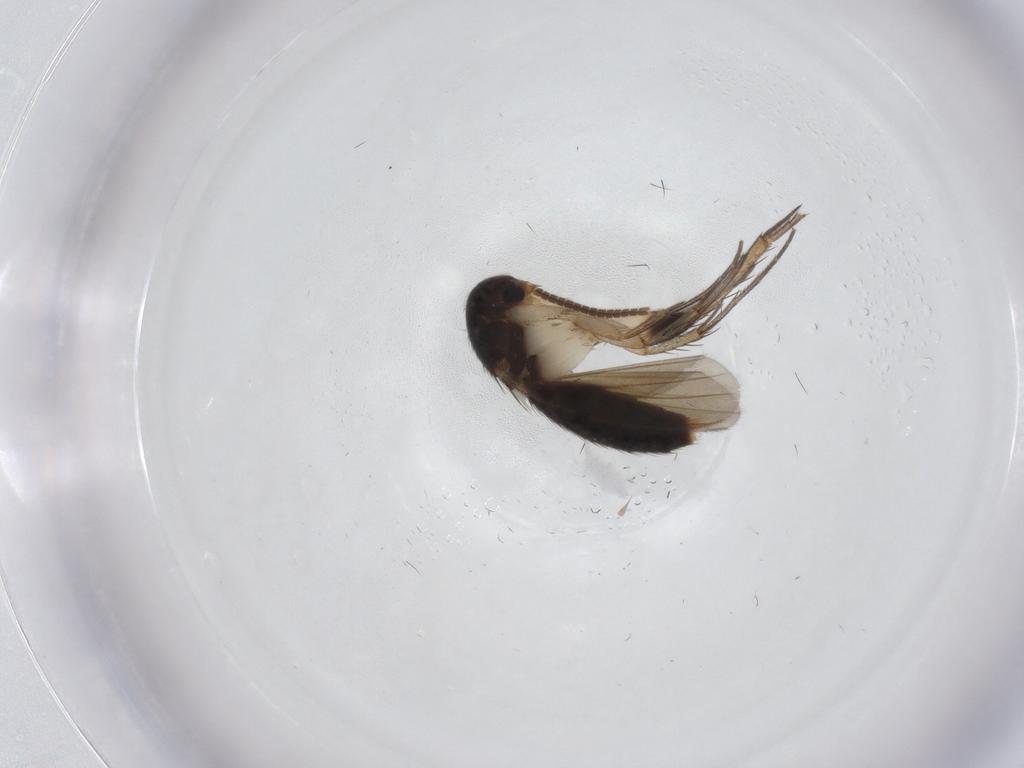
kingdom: Animalia
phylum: Arthropoda
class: Insecta
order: Diptera
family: Mycetophilidae
